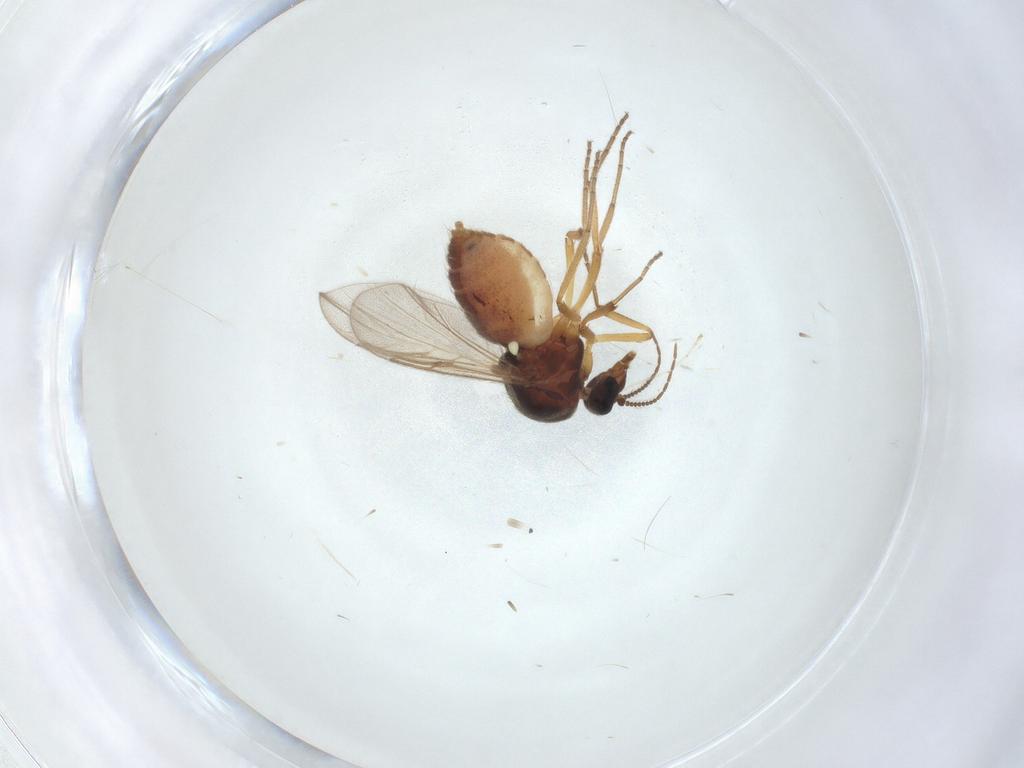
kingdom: Animalia
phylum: Arthropoda
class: Insecta
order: Diptera
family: Ceratopogonidae
